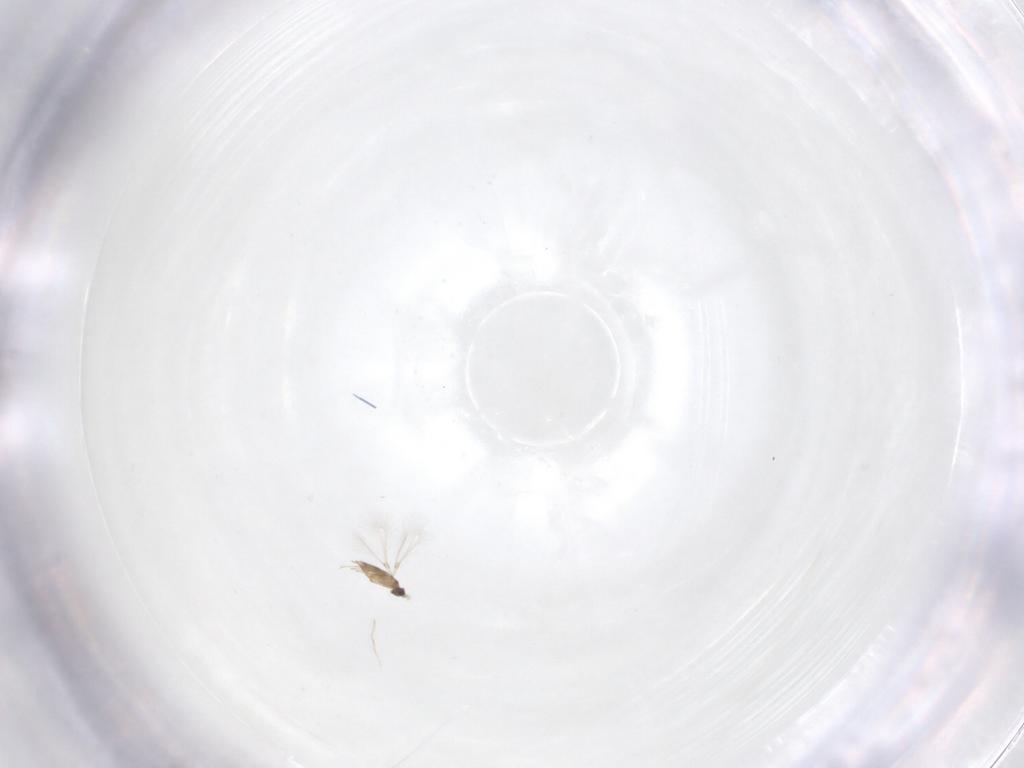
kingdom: Animalia
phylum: Arthropoda
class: Insecta
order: Hymenoptera
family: Mymaridae
